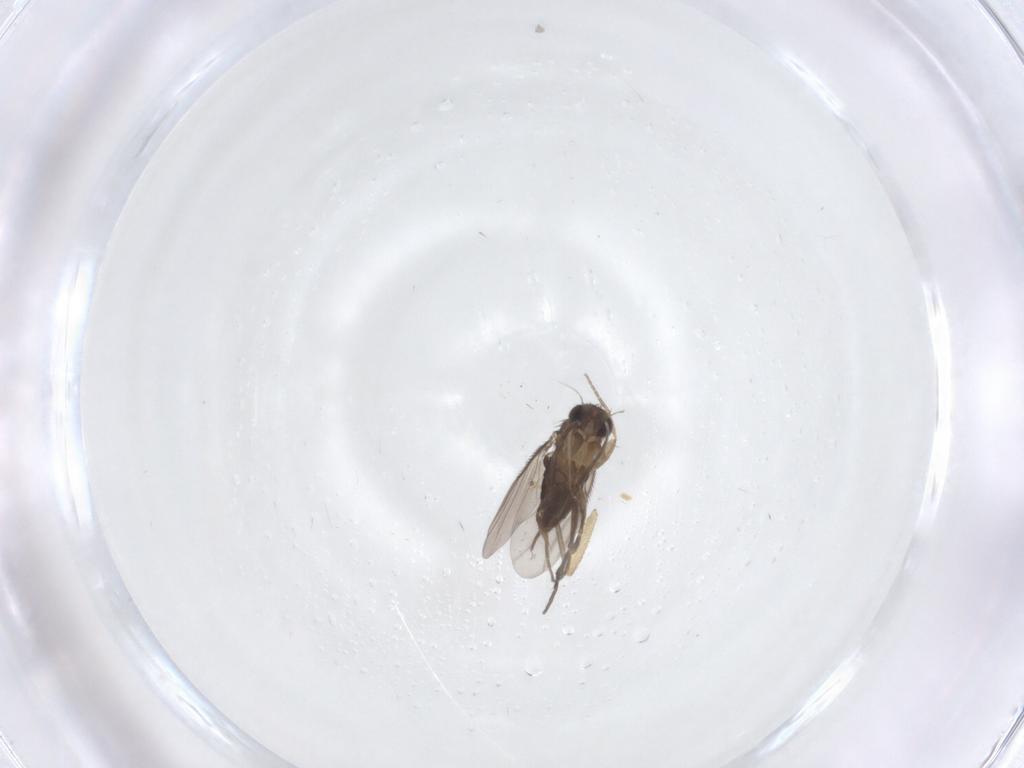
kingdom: Animalia
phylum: Arthropoda
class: Insecta
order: Diptera
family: Phoridae
